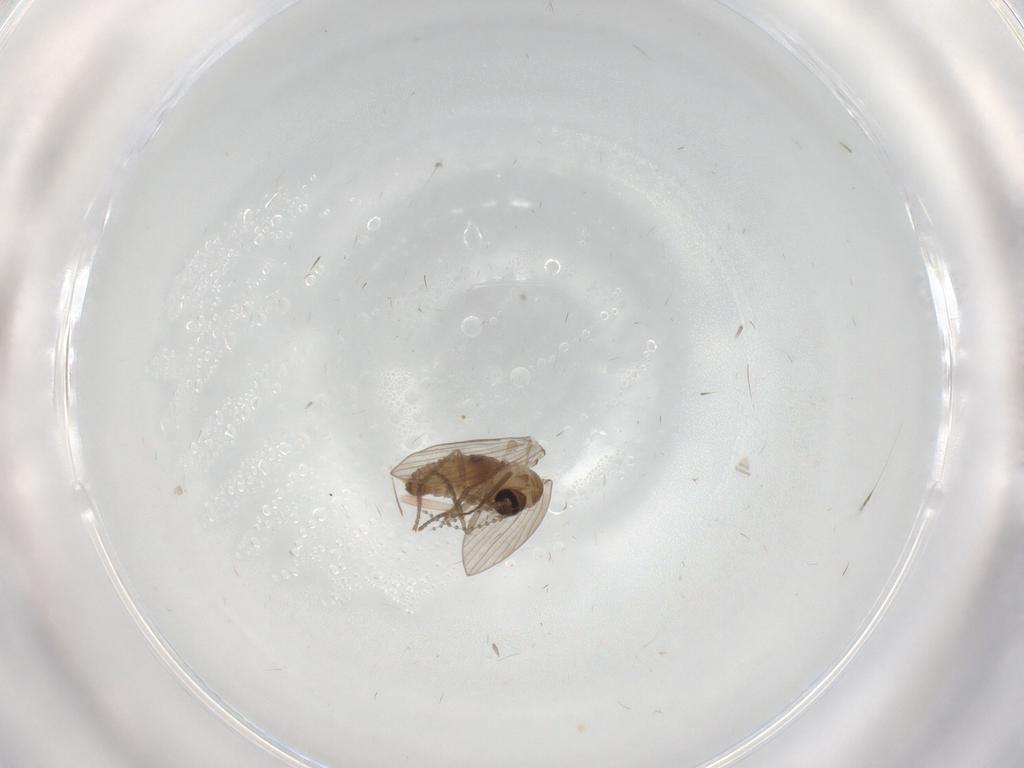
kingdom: Animalia
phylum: Arthropoda
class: Insecta
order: Diptera
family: Psychodidae
